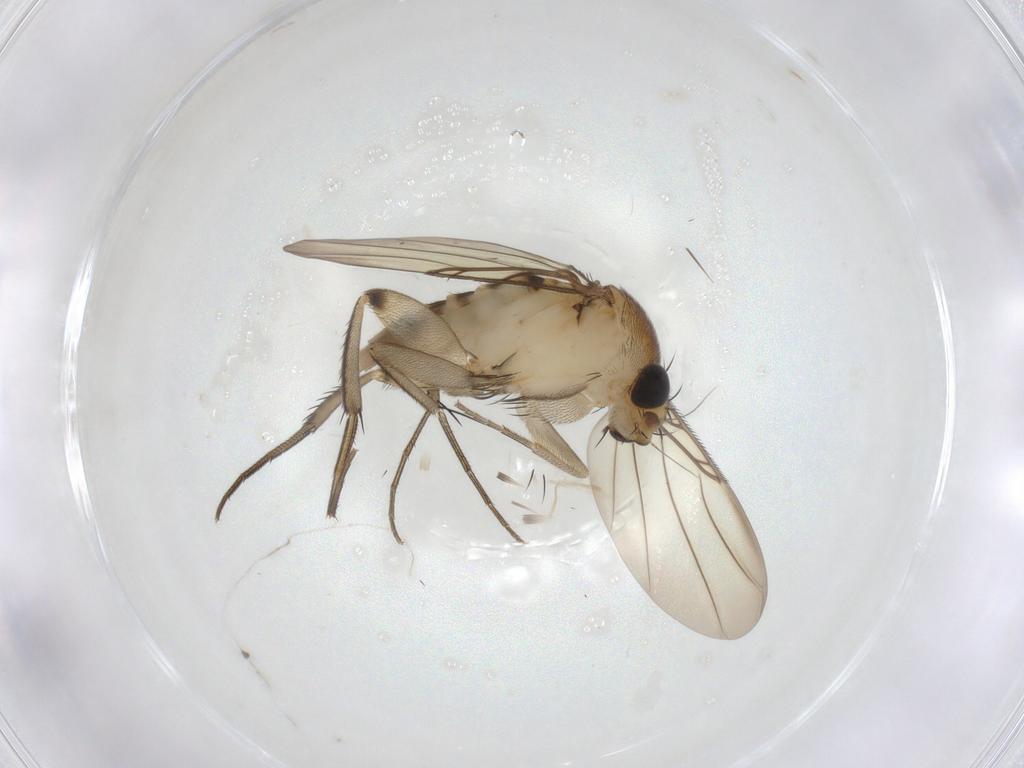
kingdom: Animalia
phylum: Arthropoda
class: Insecta
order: Diptera
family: Phoridae
